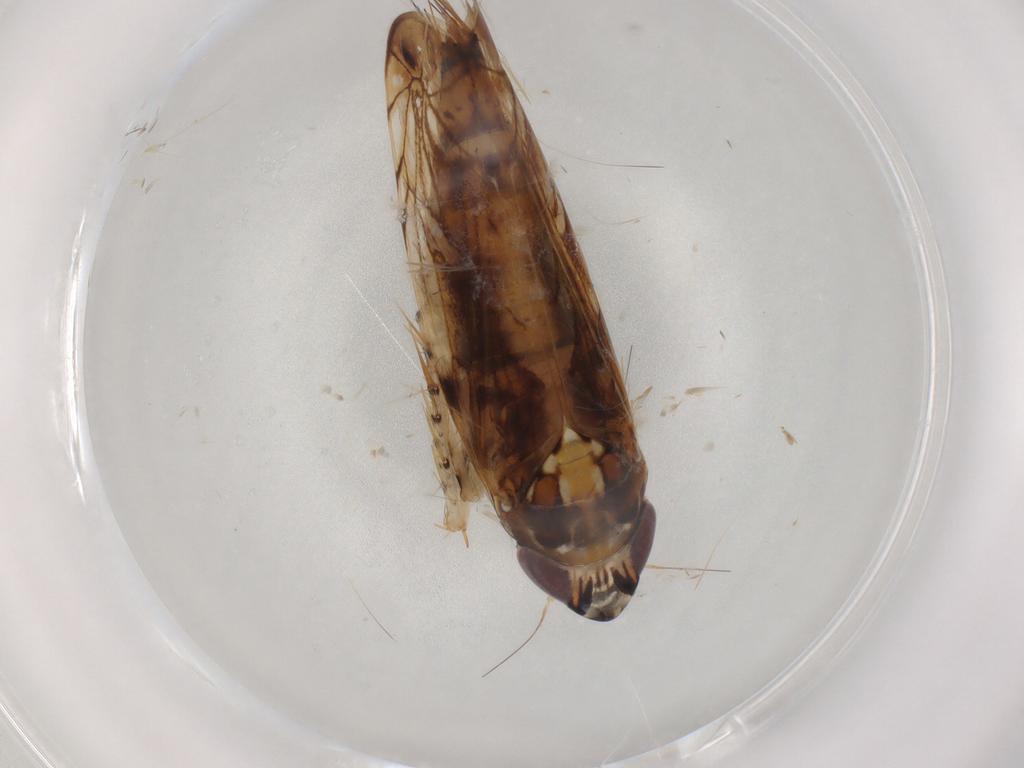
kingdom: Animalia
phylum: Arthropoda
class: Insecta
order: Hemiptera
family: Cicadellidae
